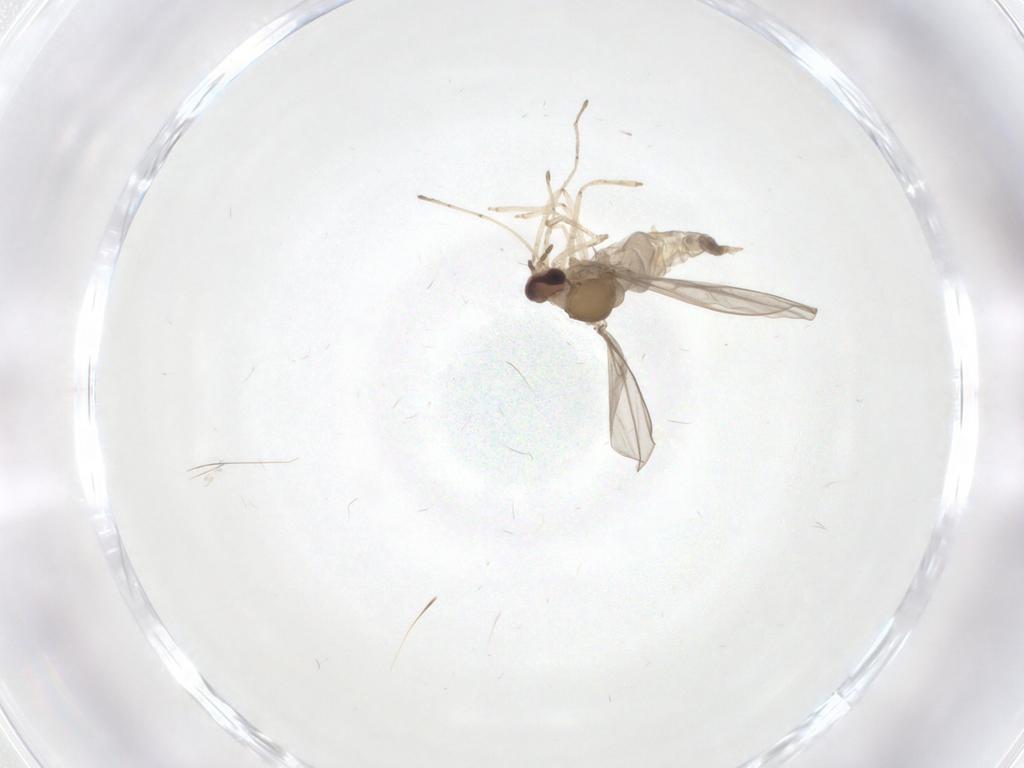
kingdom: Animalia
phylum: Arthropoda
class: Insecta
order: Diptera
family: Cecidomyiidae
